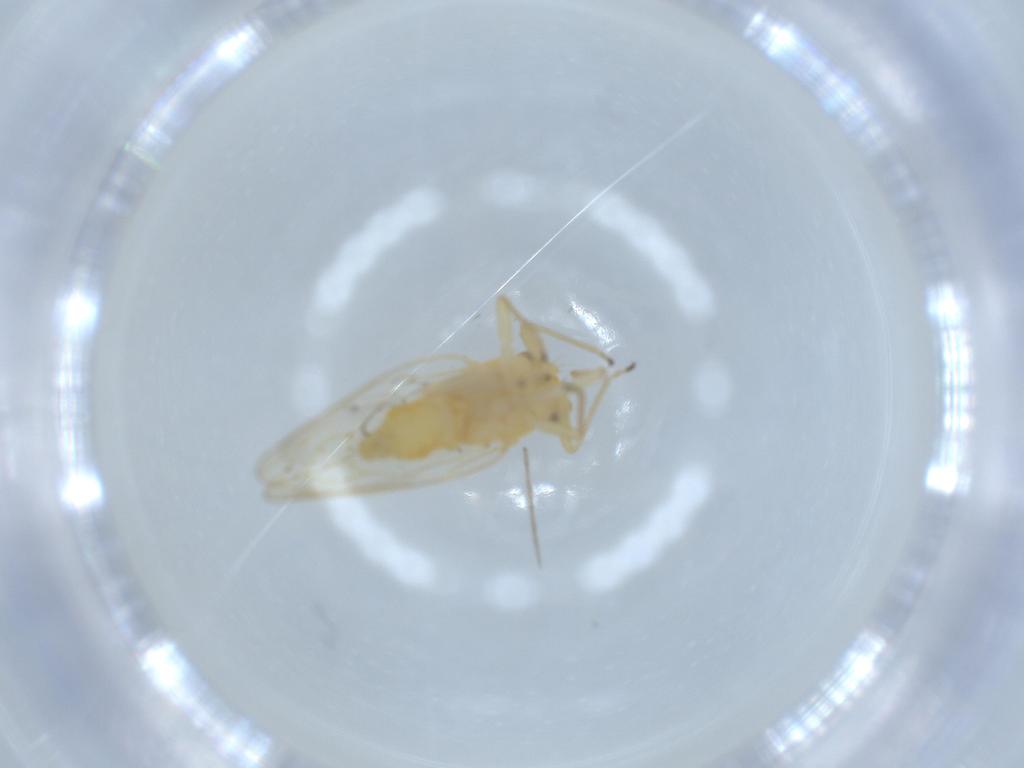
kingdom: Animalia
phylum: Arthropoda
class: Insecta
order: Hemiptera
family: Psyllidae
